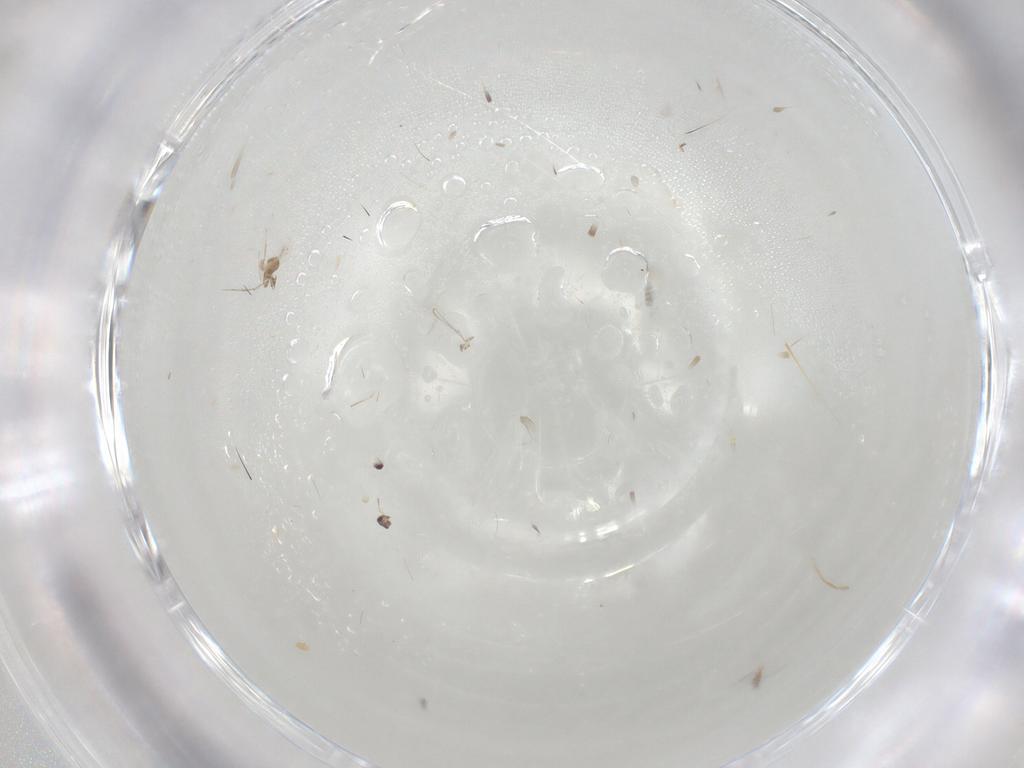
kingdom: Animalia
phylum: Arthropoda
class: Insecta
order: Hymenoptera
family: Mymaridae
